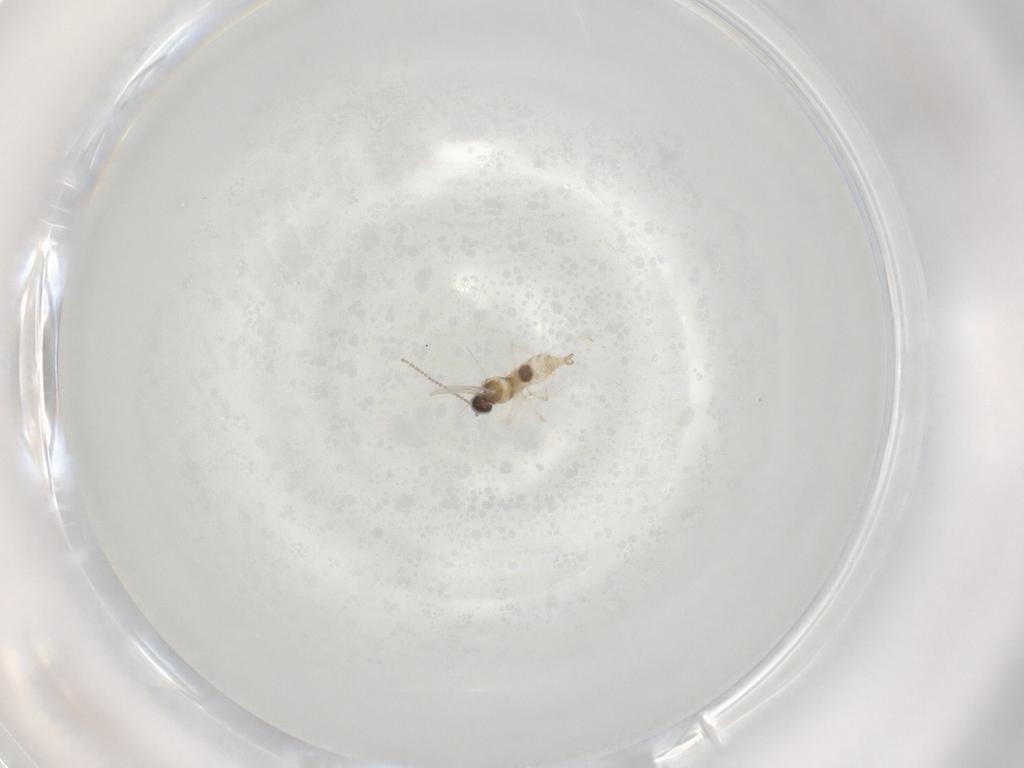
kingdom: Animalia
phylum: Arthropoda
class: Insecta
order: Diptera
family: Cecidomyiidae
